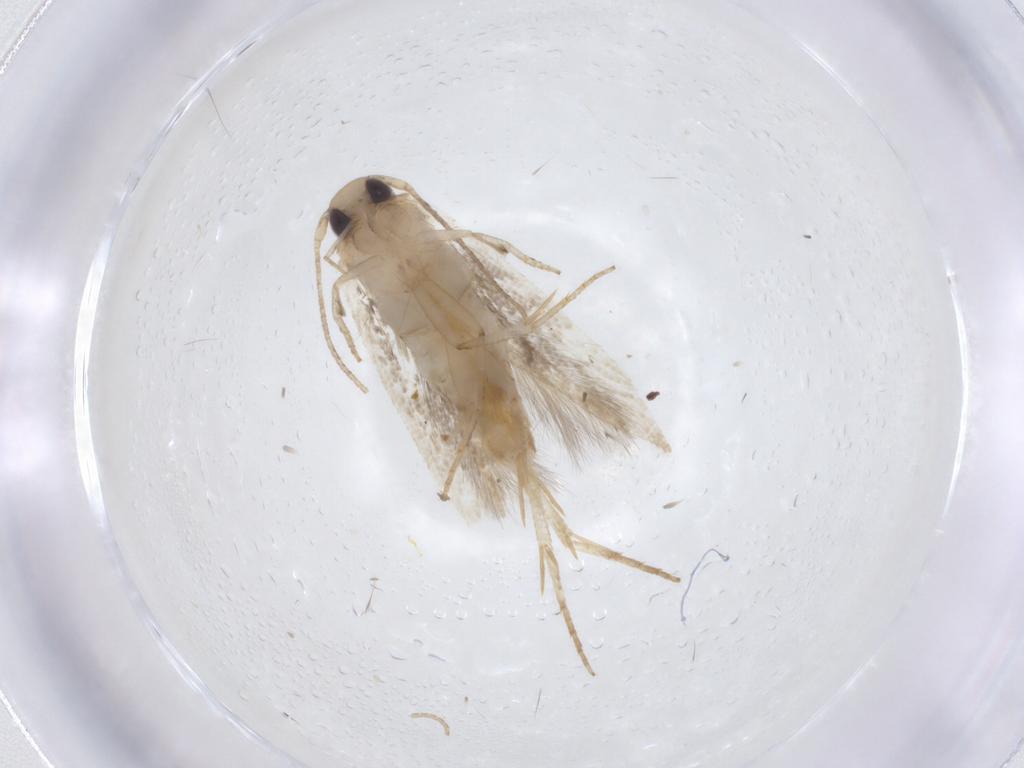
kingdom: Animalia
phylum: Arthropoda
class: Insecta
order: Lepidoptera
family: Gelechiidae
